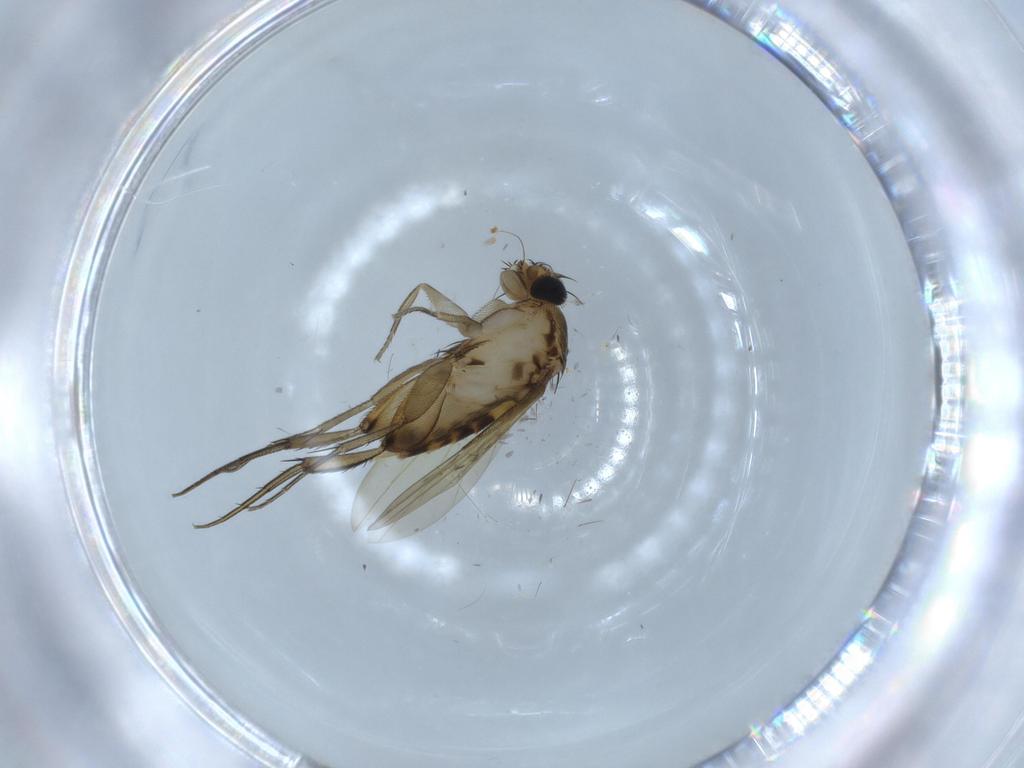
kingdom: Animalia
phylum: Arthropoda
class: Insecta
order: Diptera
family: Phoridae
